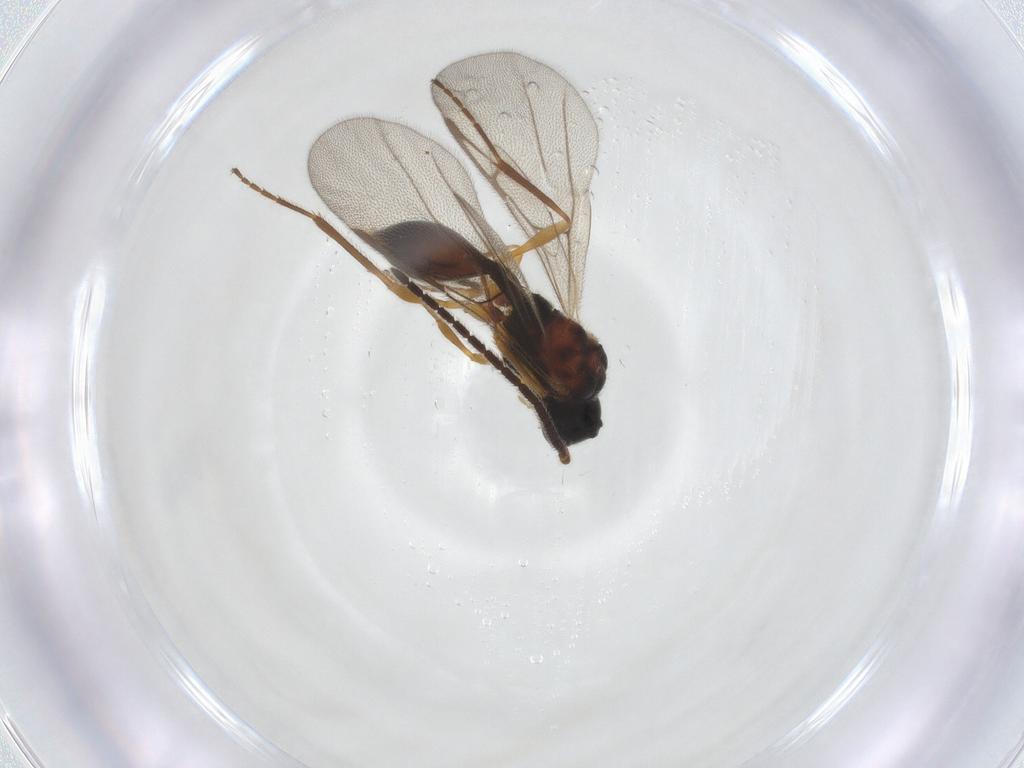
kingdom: Animalia
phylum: Arthropoda
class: Insecta
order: Hymenoptera
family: Diapriidae
